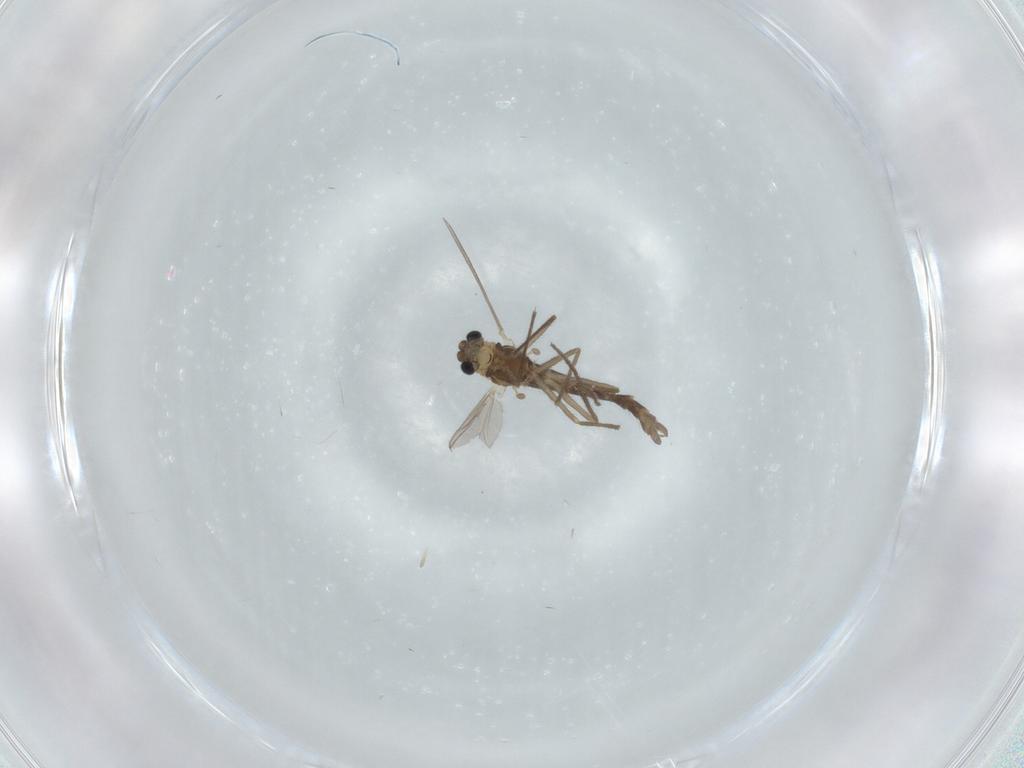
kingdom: Animalia
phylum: Arthropoda
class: Insecta
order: Diptera
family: Chironomidae
